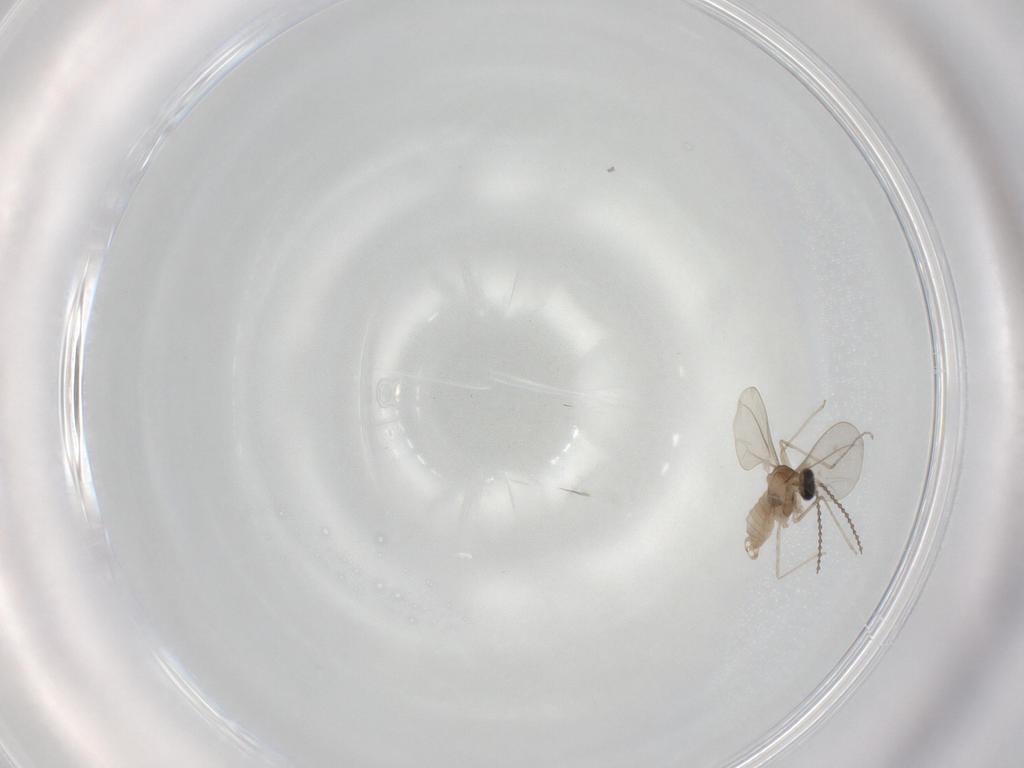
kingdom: Animalia
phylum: Arthropoda
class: Insecta
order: Diptera
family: Cecidomyiidae
